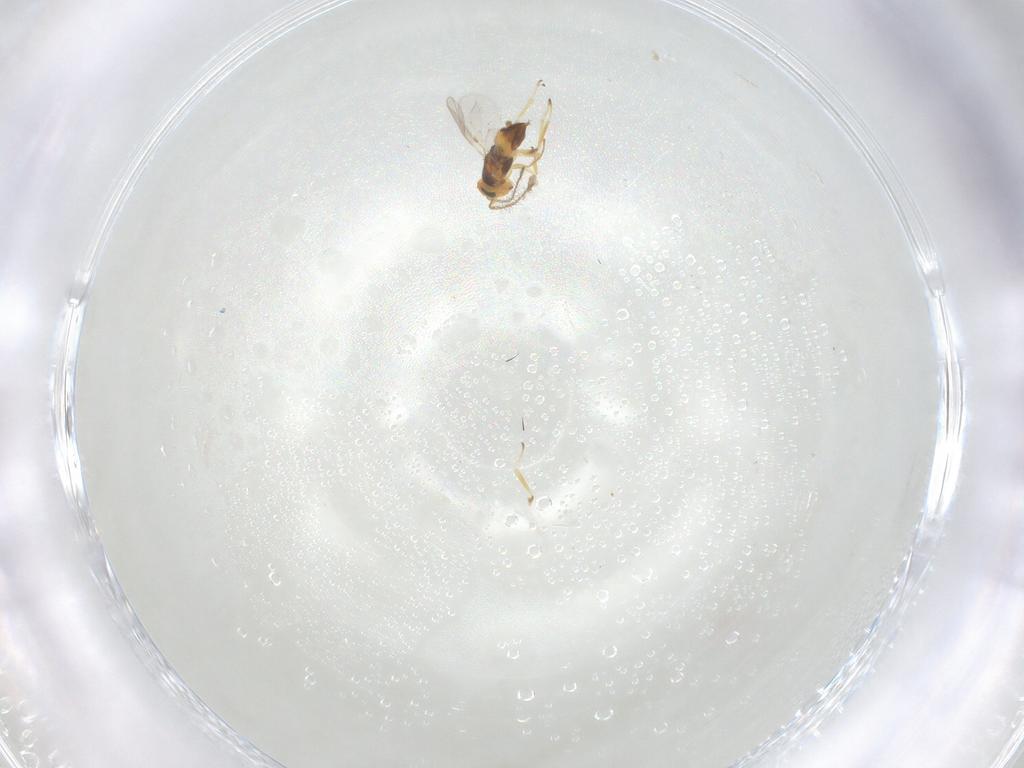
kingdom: Animalia
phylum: Arthropoda
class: Insecta
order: Hymenoptera
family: Encyrtidae
